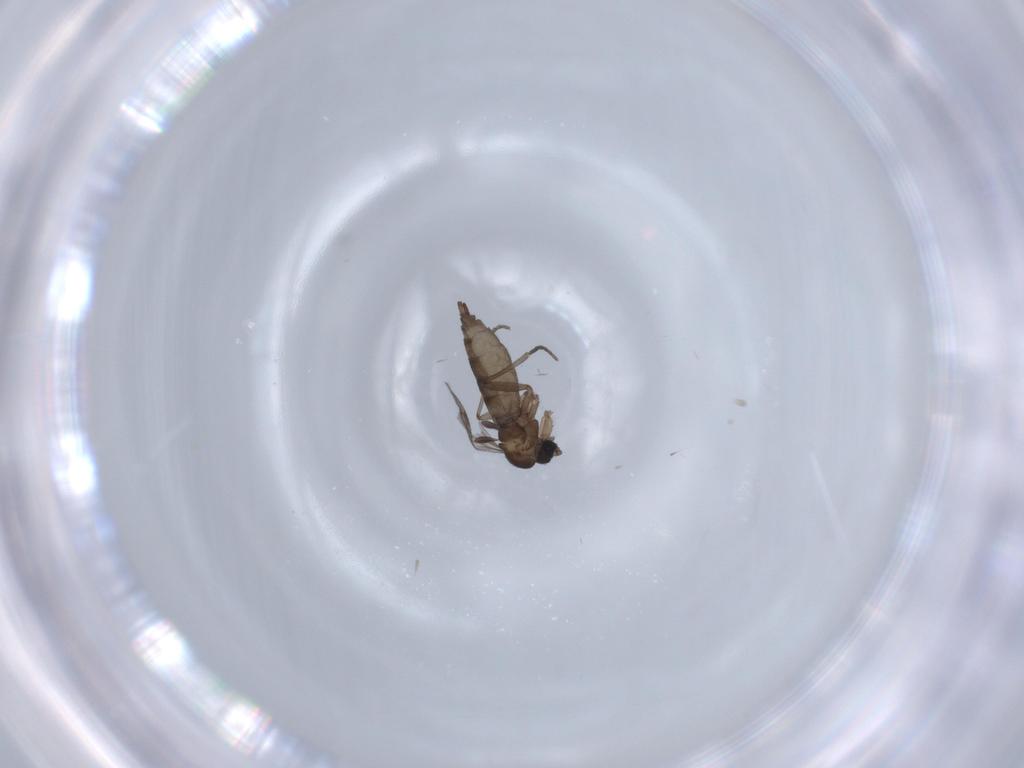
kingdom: Animalia
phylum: Arthropoda
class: Insecta
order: Diptera
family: Sciaridae
